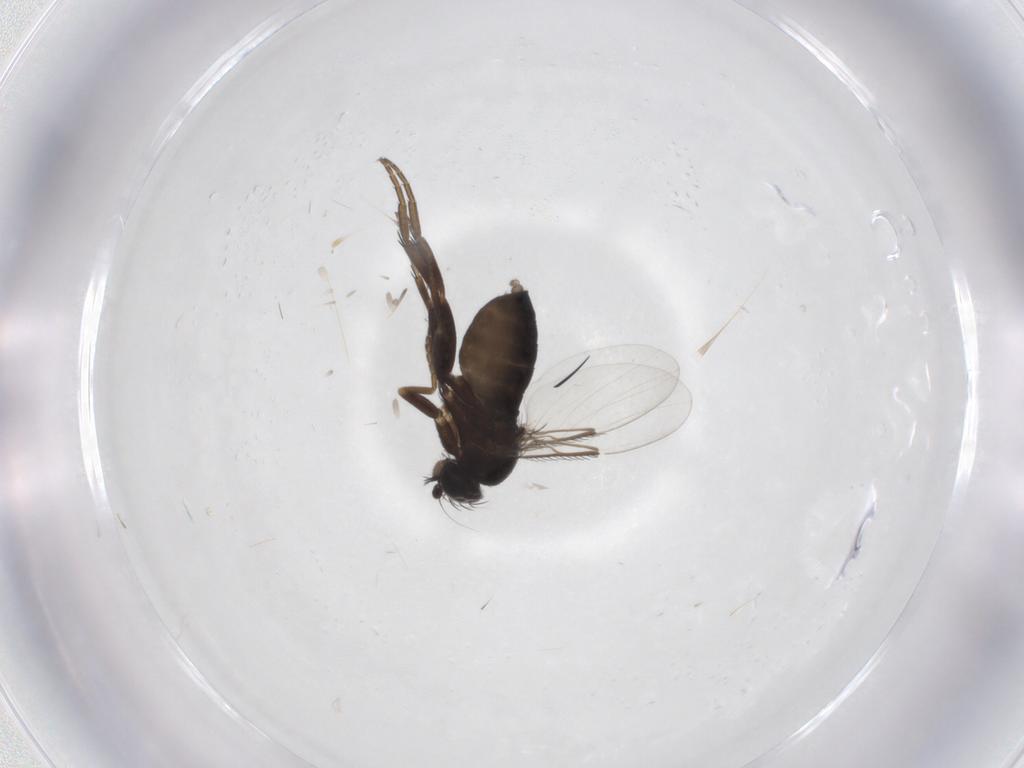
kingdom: Animalia
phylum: Arthropoda
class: Insecta
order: Diptera
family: Phoridae
